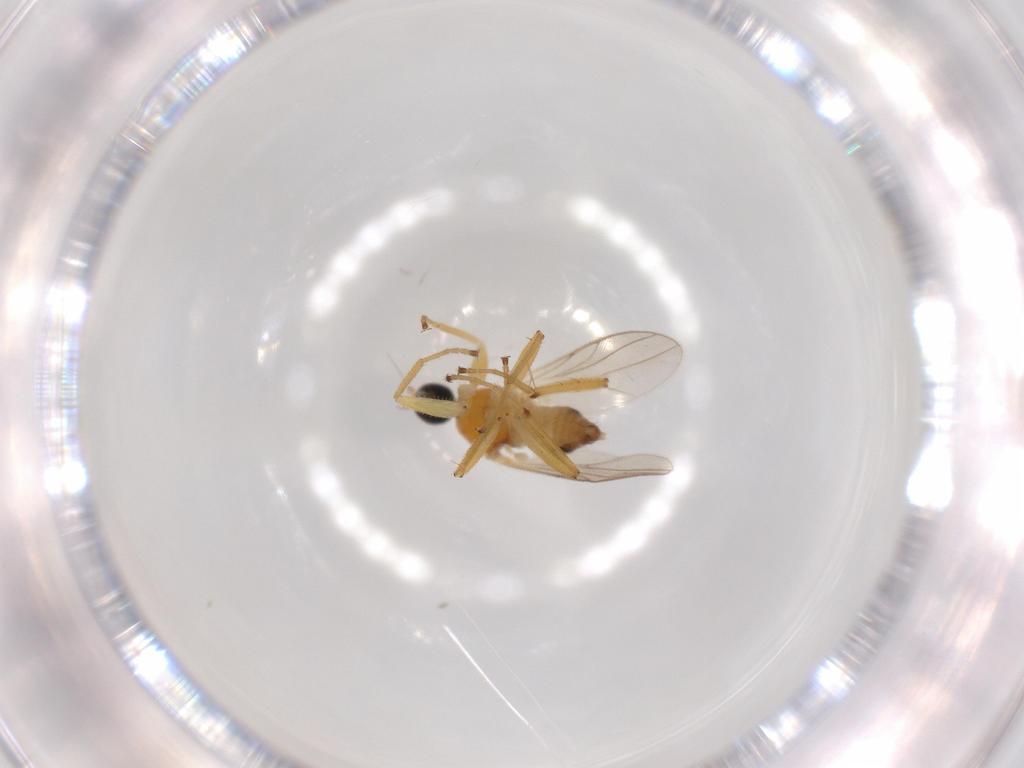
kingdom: Animalia
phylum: Arthropoda
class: Insecta
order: Diptera
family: Hybotidae
